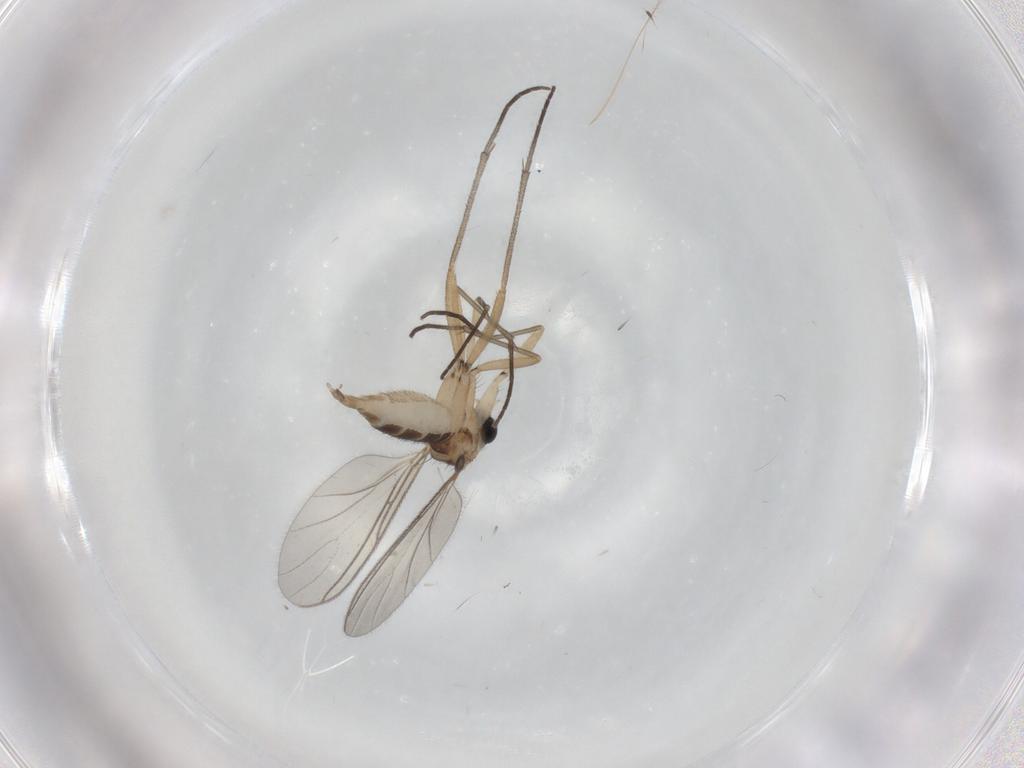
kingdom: Animalia
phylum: Arthropoda
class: Insecta
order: Diptera
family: Sciaridae
